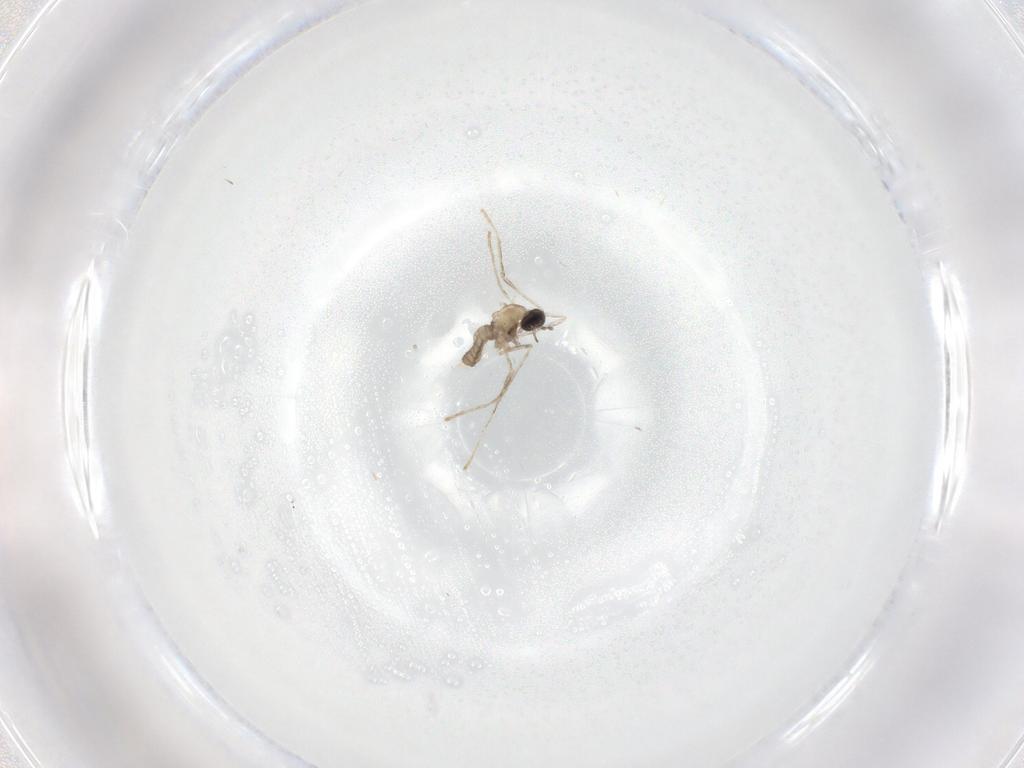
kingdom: Animalia
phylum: Arthropoda
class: Insecta
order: Diptera
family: Cecidomyiidae
